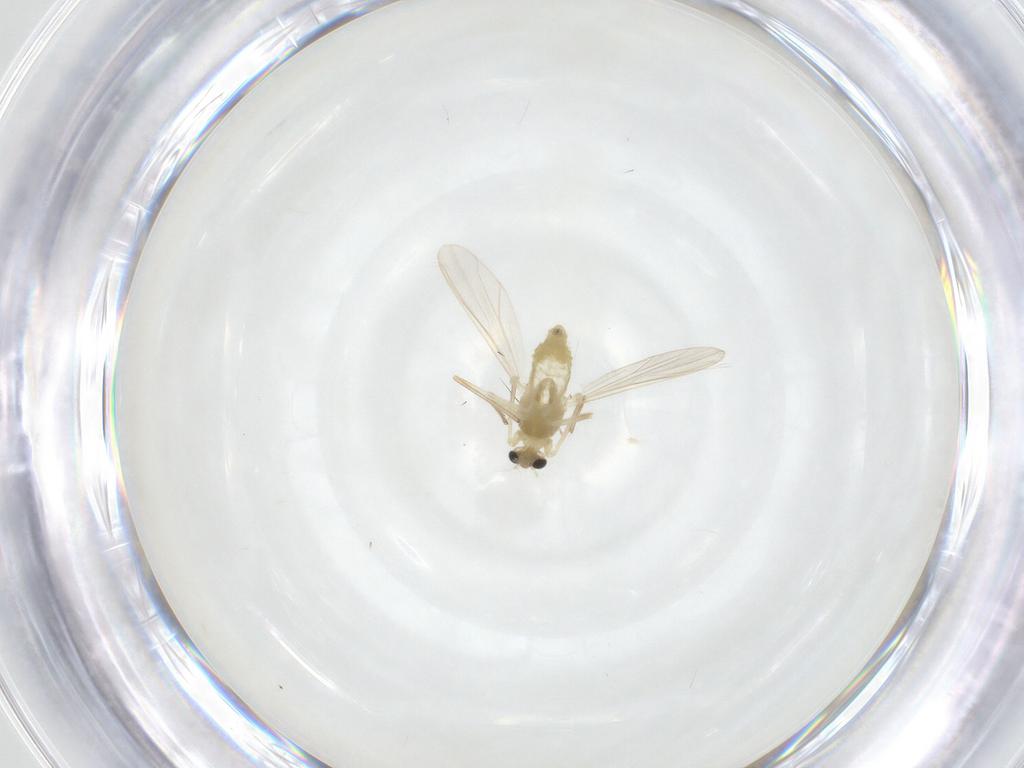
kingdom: Animalia
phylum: Arthropoda
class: Insecta
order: Diptera
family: Chironomidae
